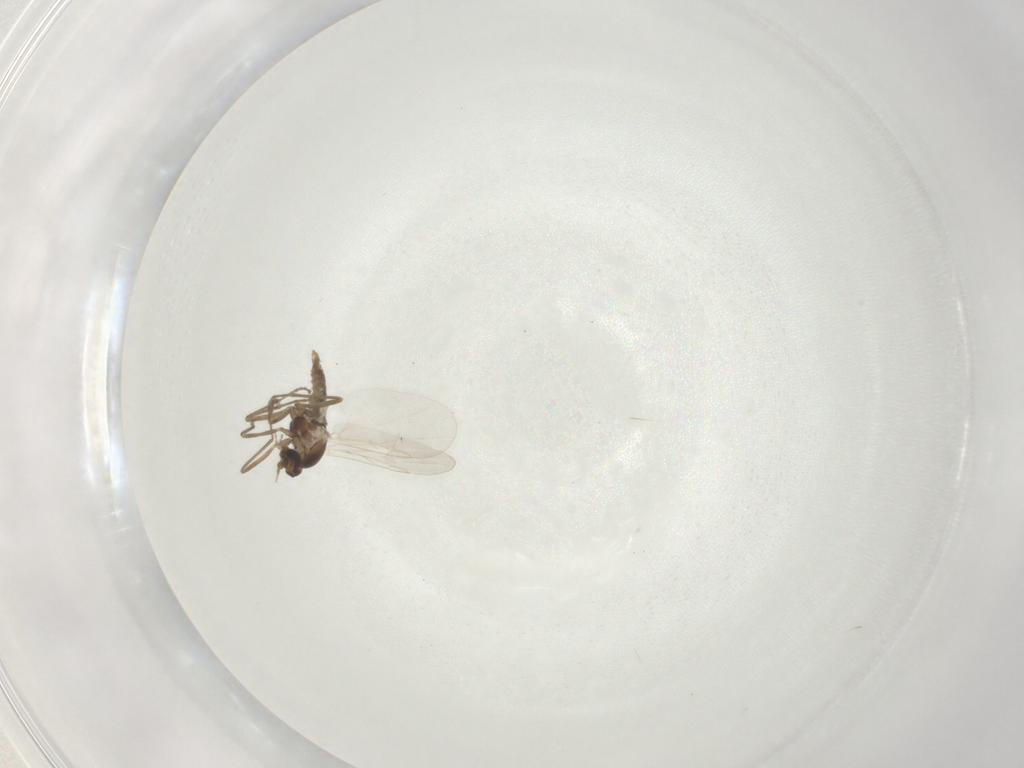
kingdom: Animalia
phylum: Arthropoda
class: Insecta
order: Diptera
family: Cecidomyiidae
